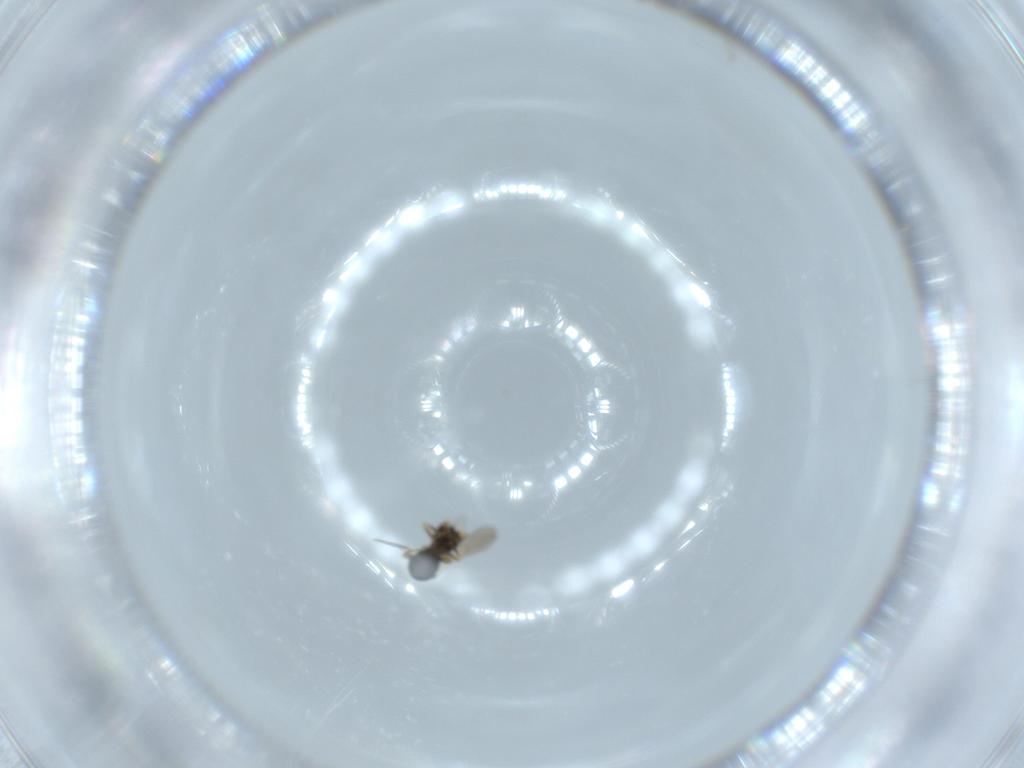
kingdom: Animalia
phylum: Arthropoda
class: Insecta
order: Hymenoptera
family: Scelionidae
